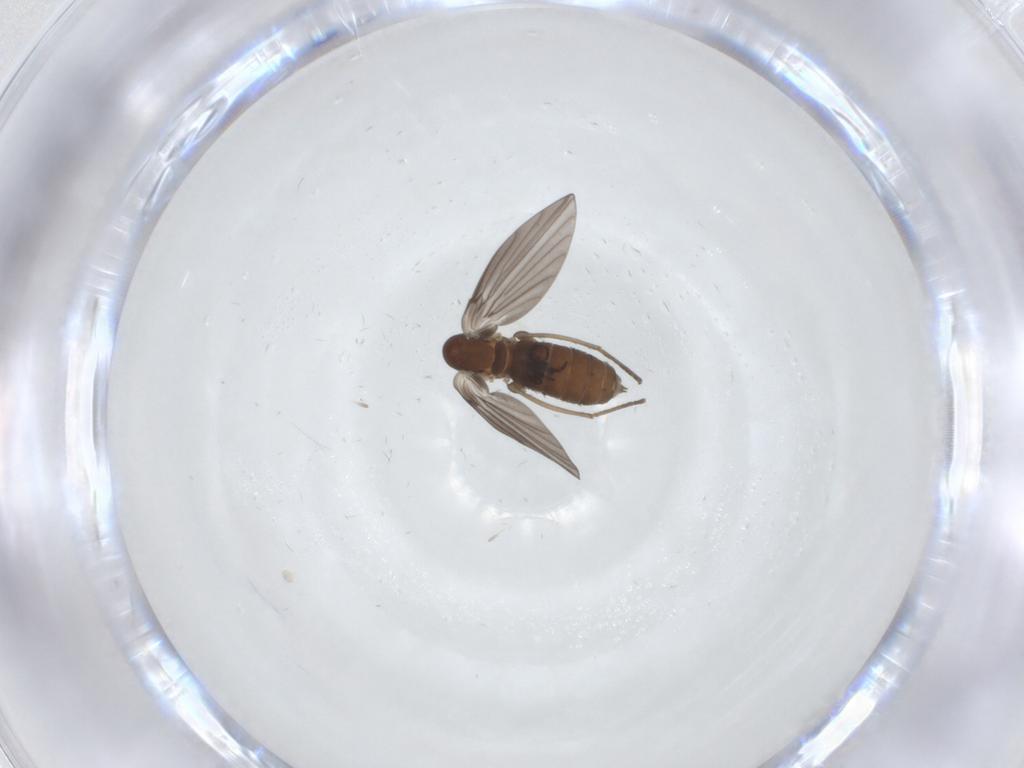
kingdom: Animalia
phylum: Arthropoda
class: Insecta
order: Diptera
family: Psychodidae
